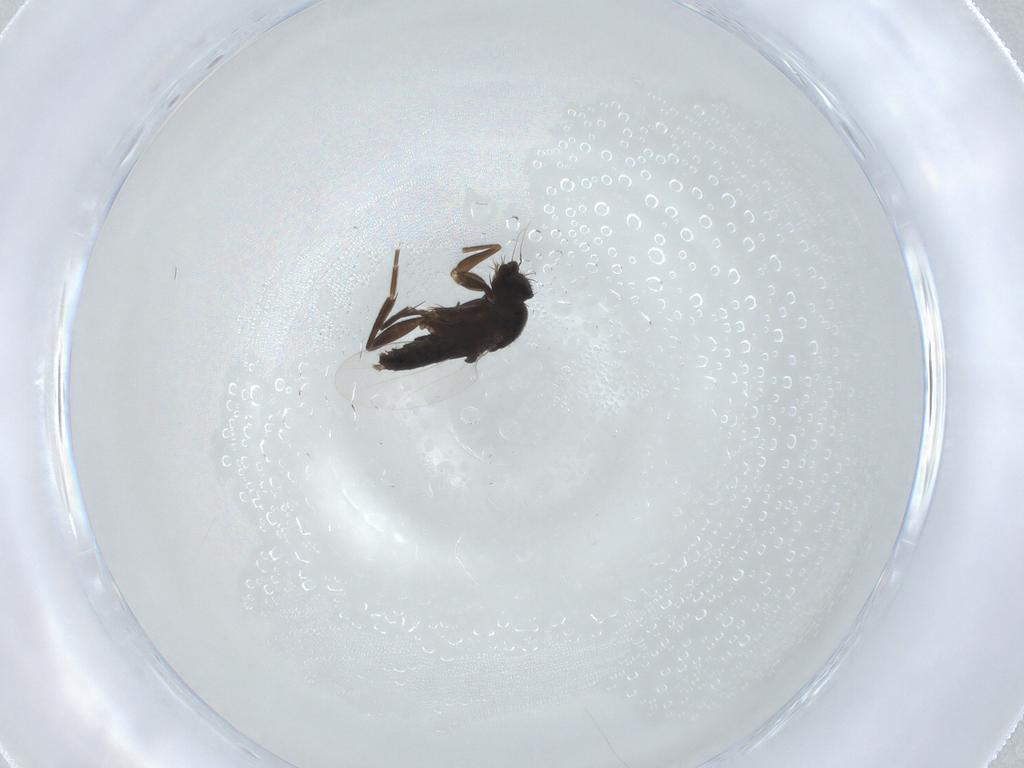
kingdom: Animalia
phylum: Arthropoda
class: Insecta
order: Diptera
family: Phoridae
